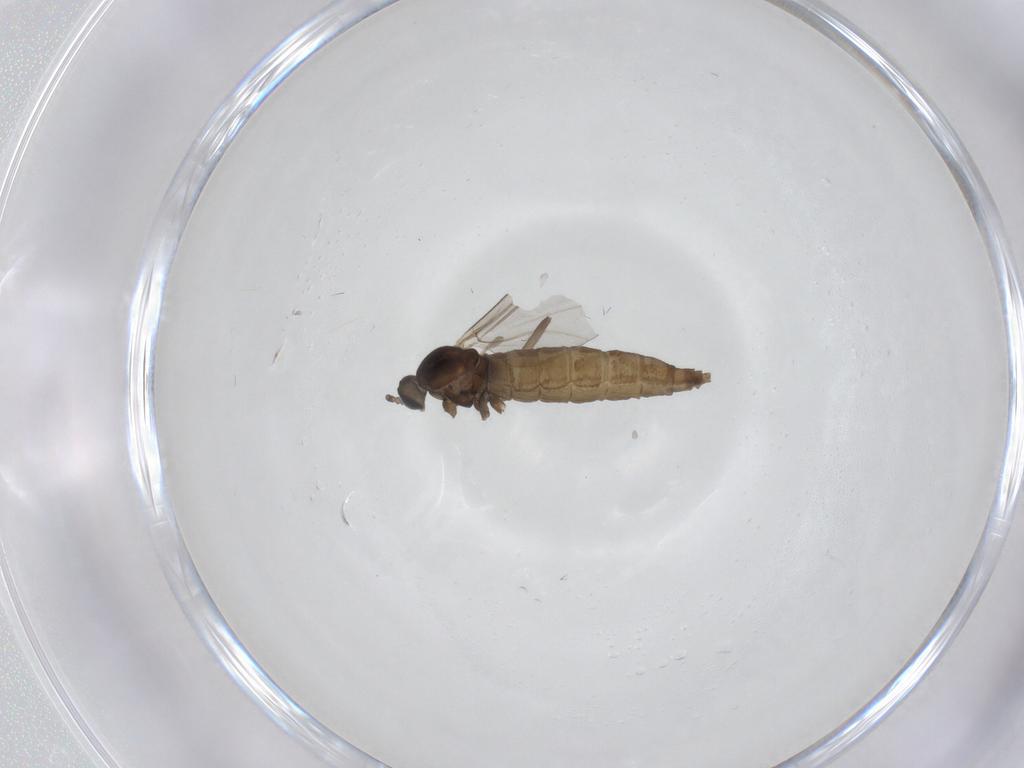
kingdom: Animalia
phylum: Arthropoda
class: Insecta
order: Diptera
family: Cecidomyiidae
